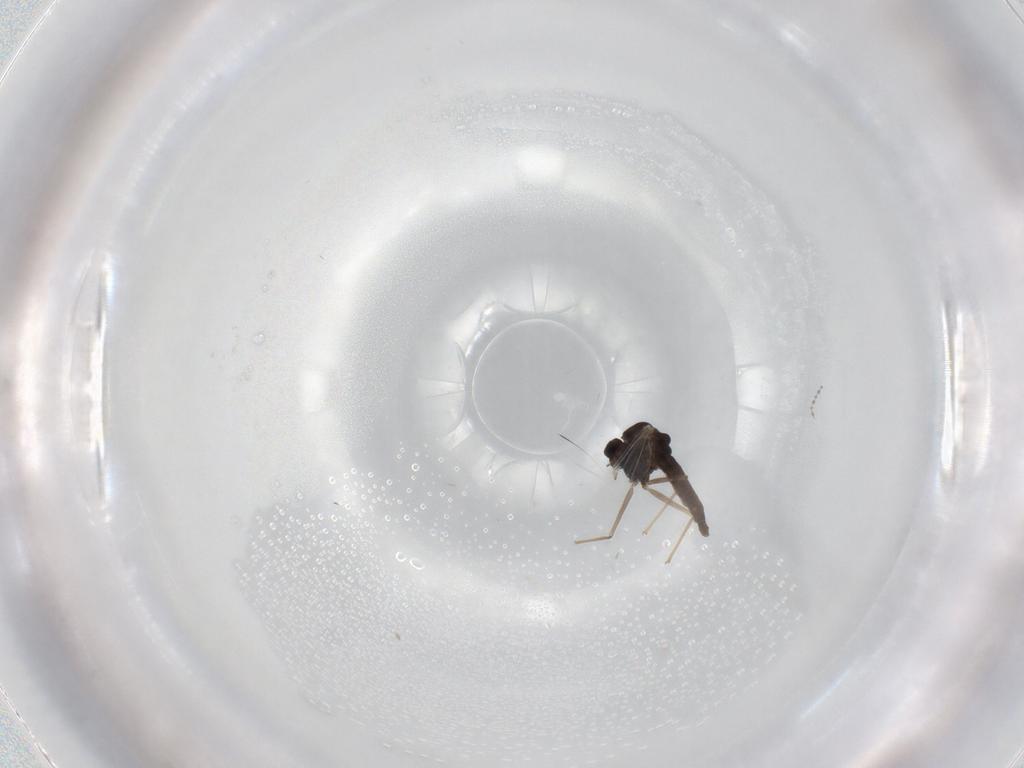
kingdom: Animalia
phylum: Arthropoda
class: Insecta
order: Diptera
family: Chironomidae
